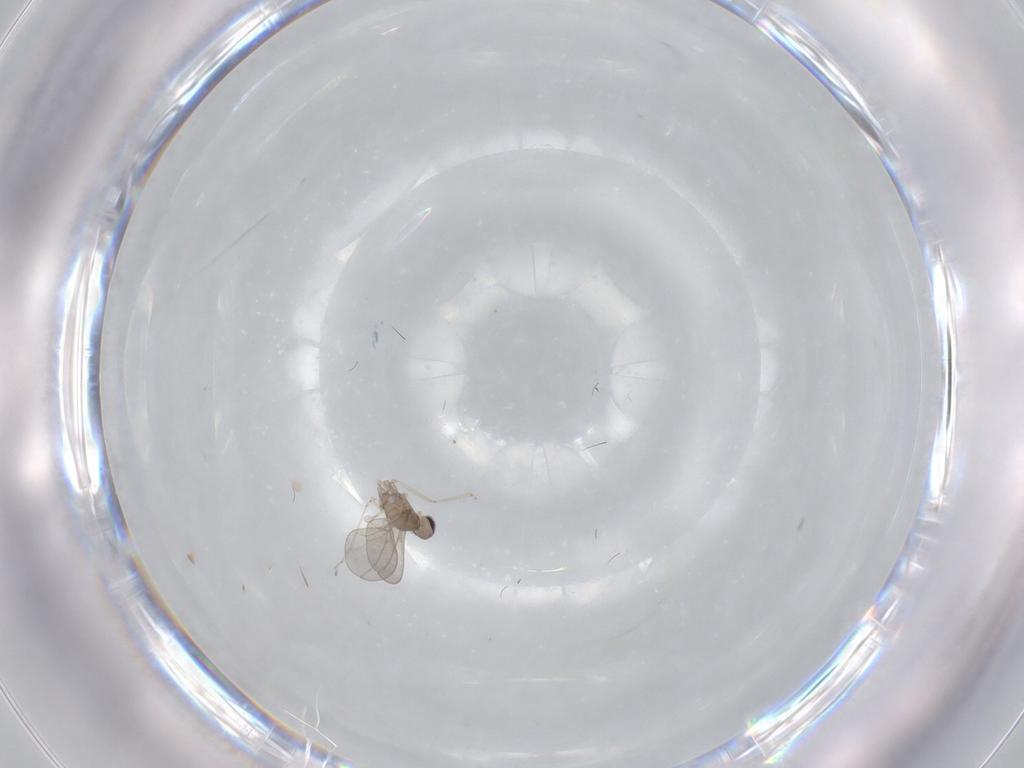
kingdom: Animalia
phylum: Arthropoda
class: Insecta
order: Diptera
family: Cecidomyiidae
